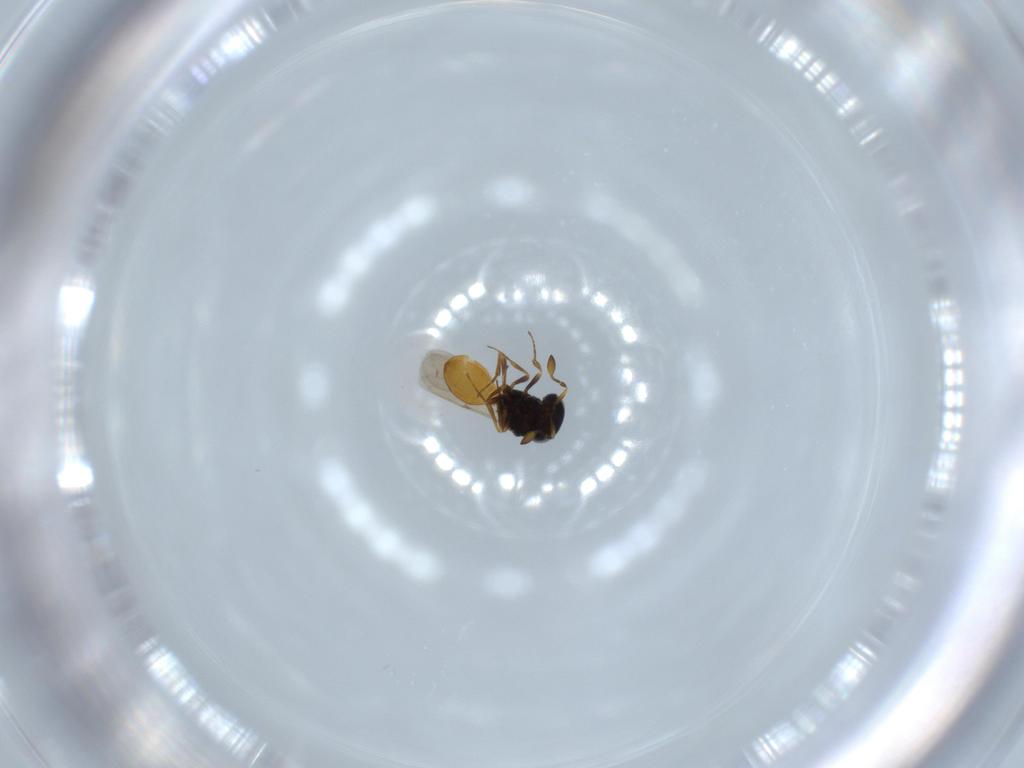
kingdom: Animalia
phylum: Arthropoda
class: Insecta
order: Hymenoptera
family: Scelionidae
